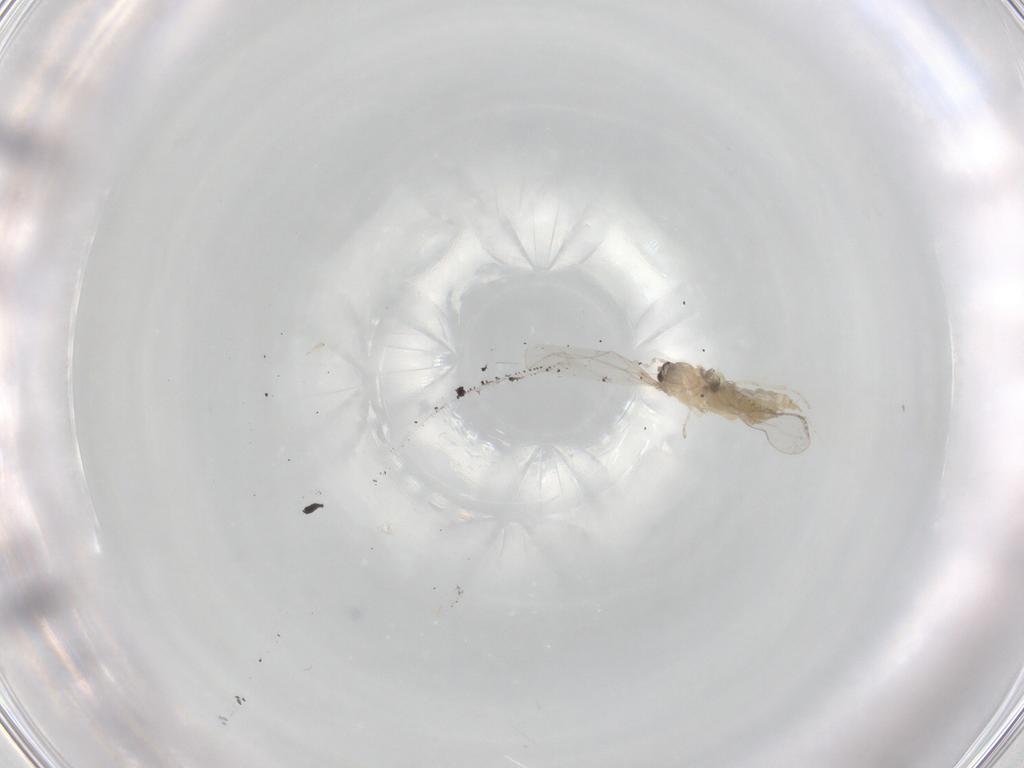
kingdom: Animalia
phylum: Arthropoda
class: Insecta
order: Diptera
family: Cecidomyiidae
